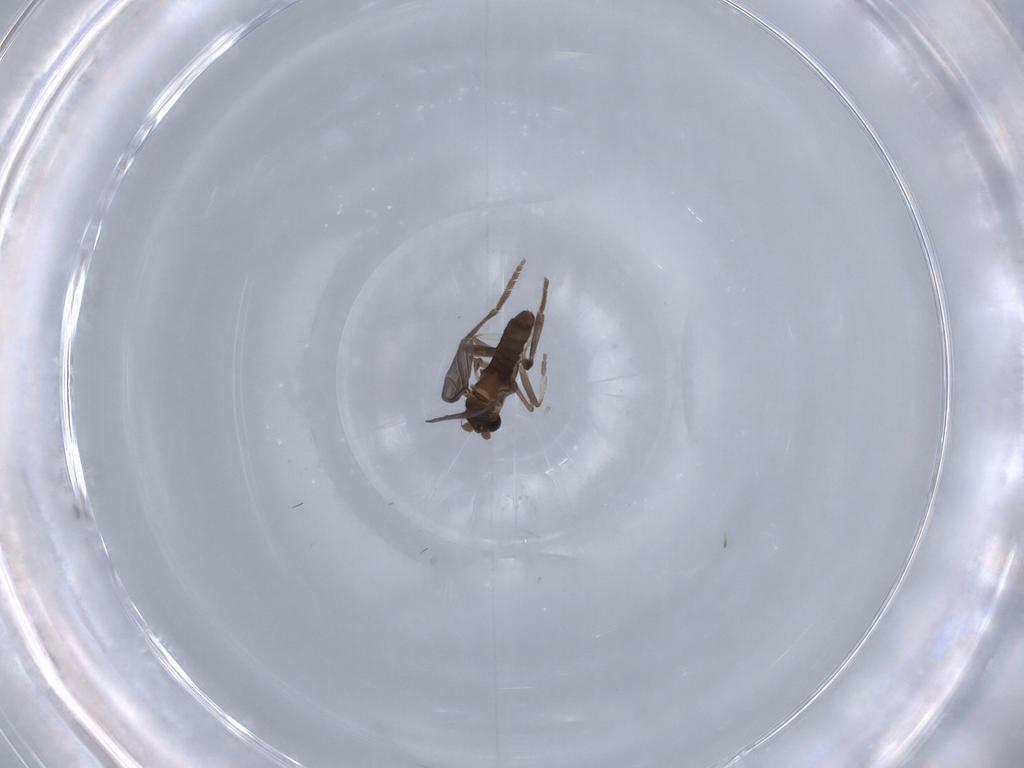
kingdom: Animalia
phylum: Arthropoda
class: Insecta
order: Diptera
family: Phoridae
